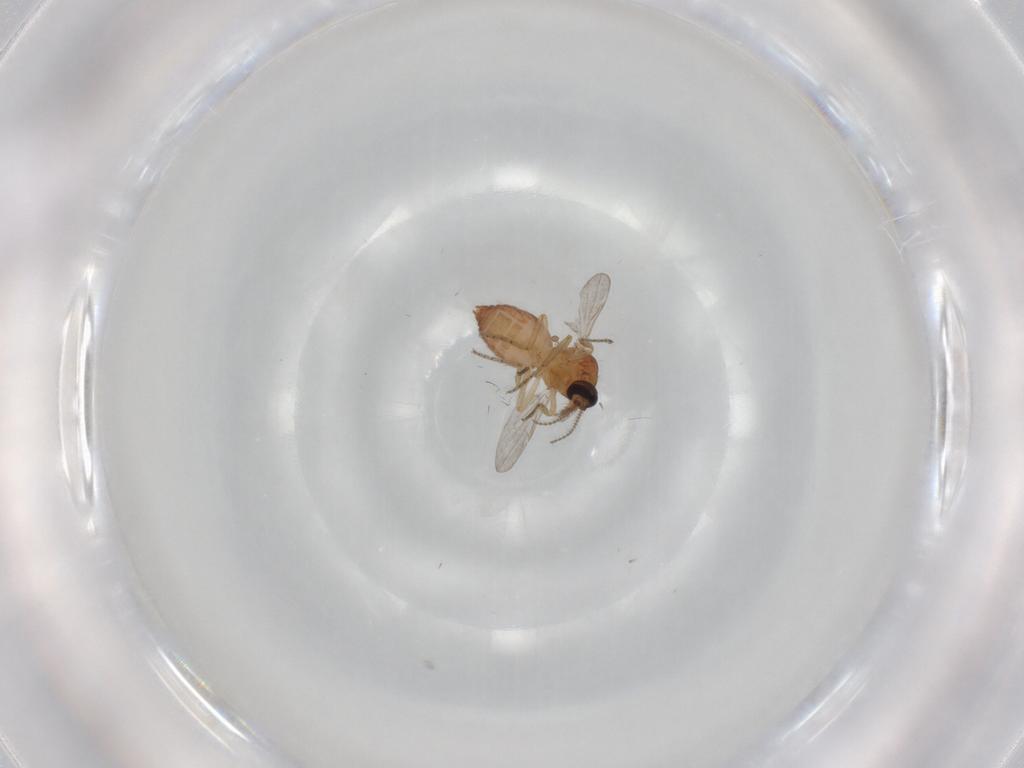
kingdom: Animalia
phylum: Arthropoda
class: Insecta
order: Diptera
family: Ceratopogonidae
